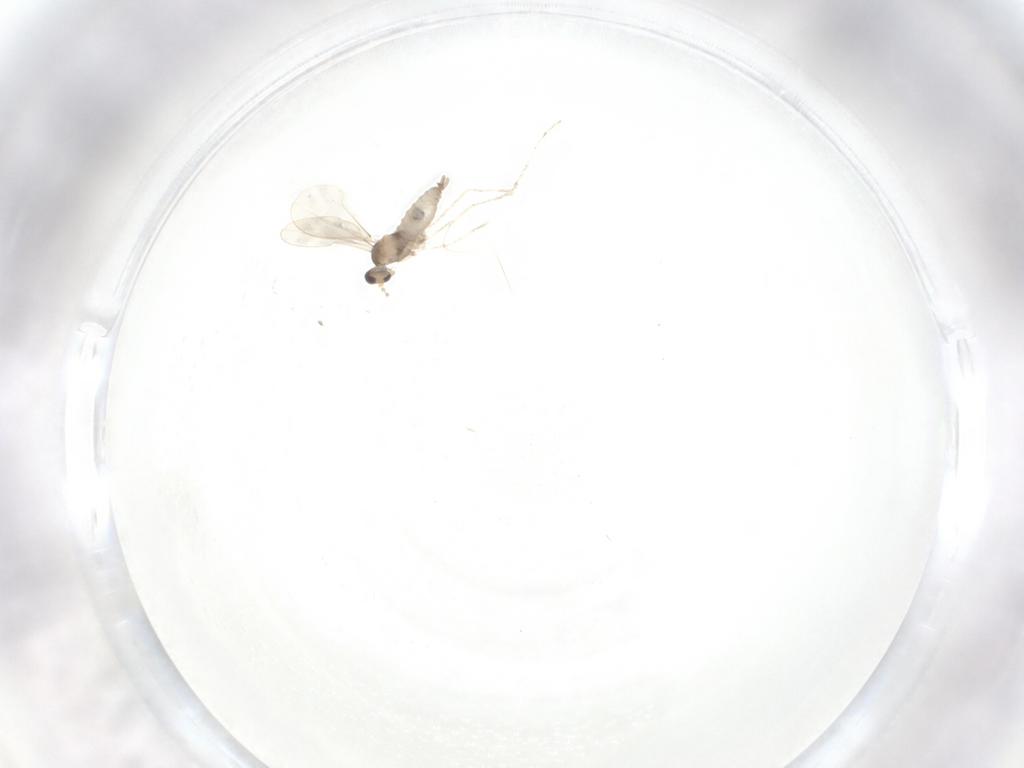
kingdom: Animalia
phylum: Arthropoda
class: Insecta
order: Diptera
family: Cecidomyiidae
